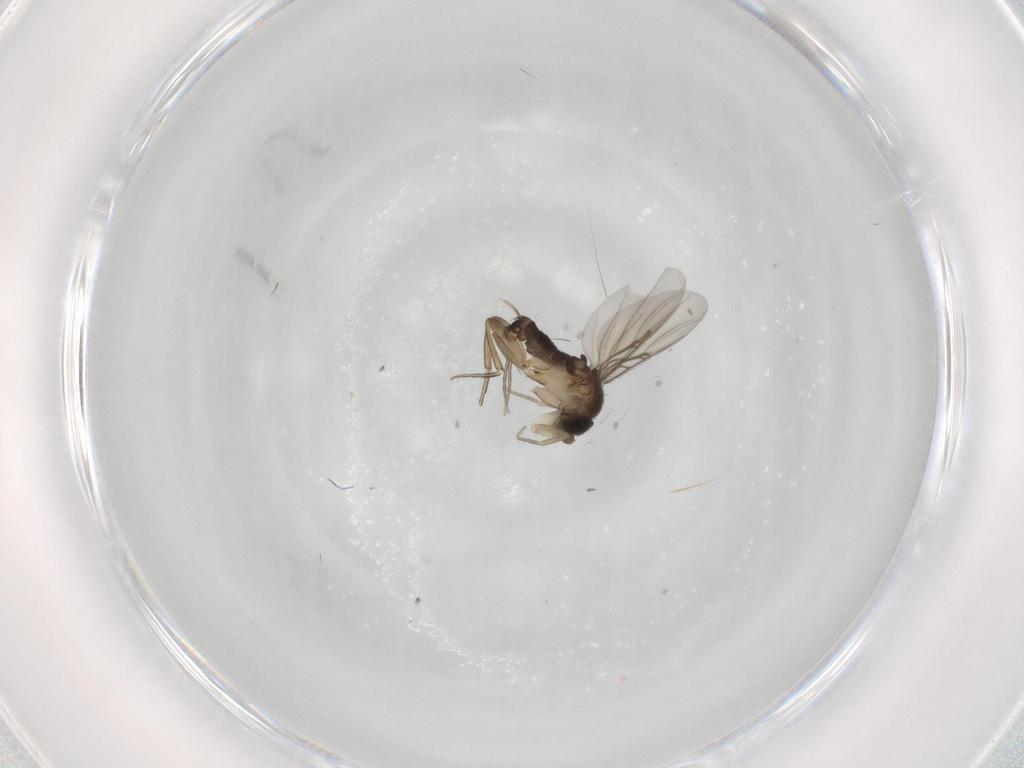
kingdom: Animalia
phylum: Arthropoda
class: Insecta
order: Diptera
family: Phoridae
